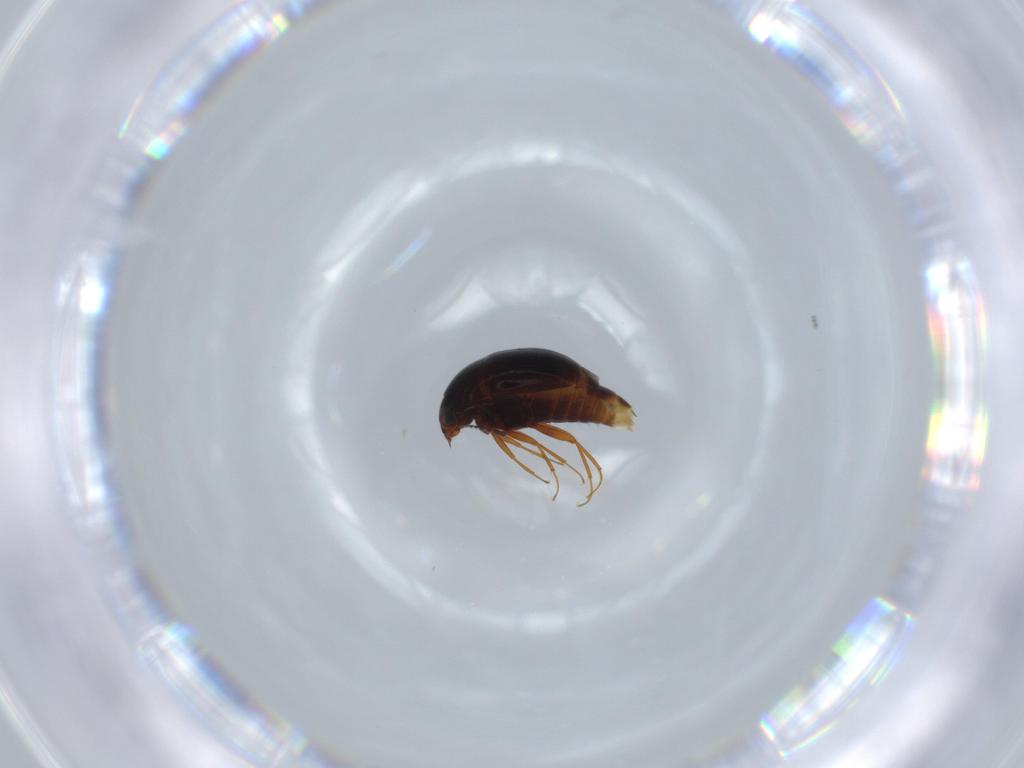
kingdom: Animalia
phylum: Arthropoda
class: Insecta
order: Coleoptera
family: Staphylinidae
